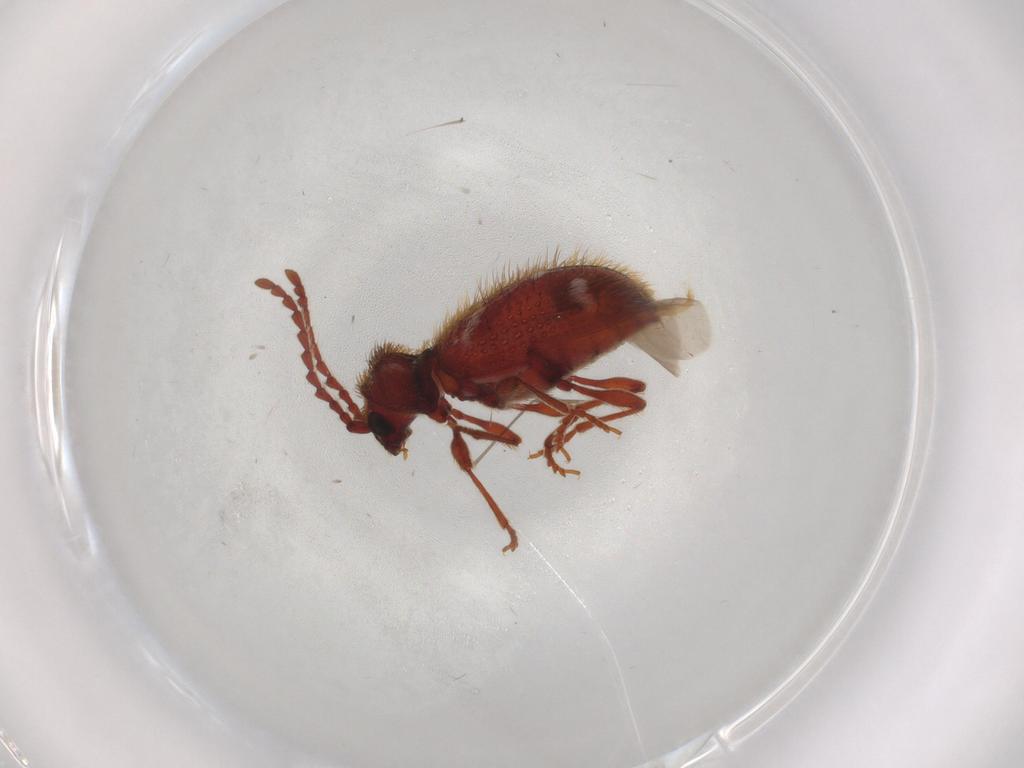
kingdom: Animalia
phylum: Arthropoda
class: Insecta
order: Coleoptera
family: Ptinidae
